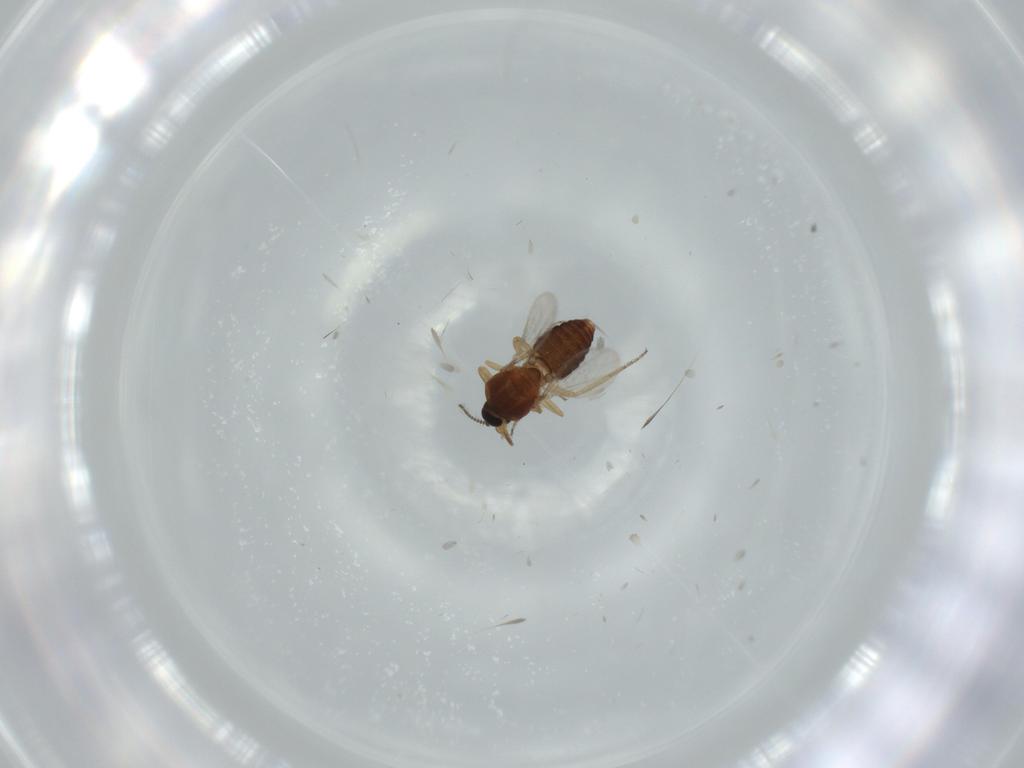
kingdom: Animalia
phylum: Arthropoda
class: Insecta
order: Diptera
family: Ceratopogonidae
